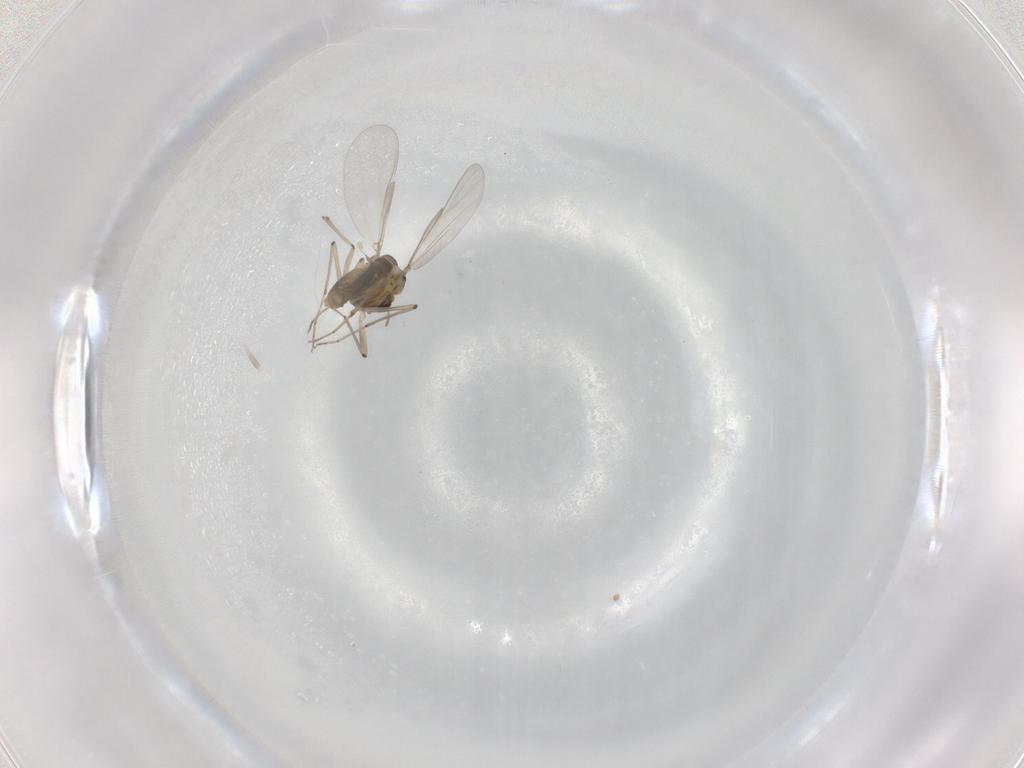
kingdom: Animalia
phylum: Arthropoda
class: Insecta
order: Diptera
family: Chironomidae
